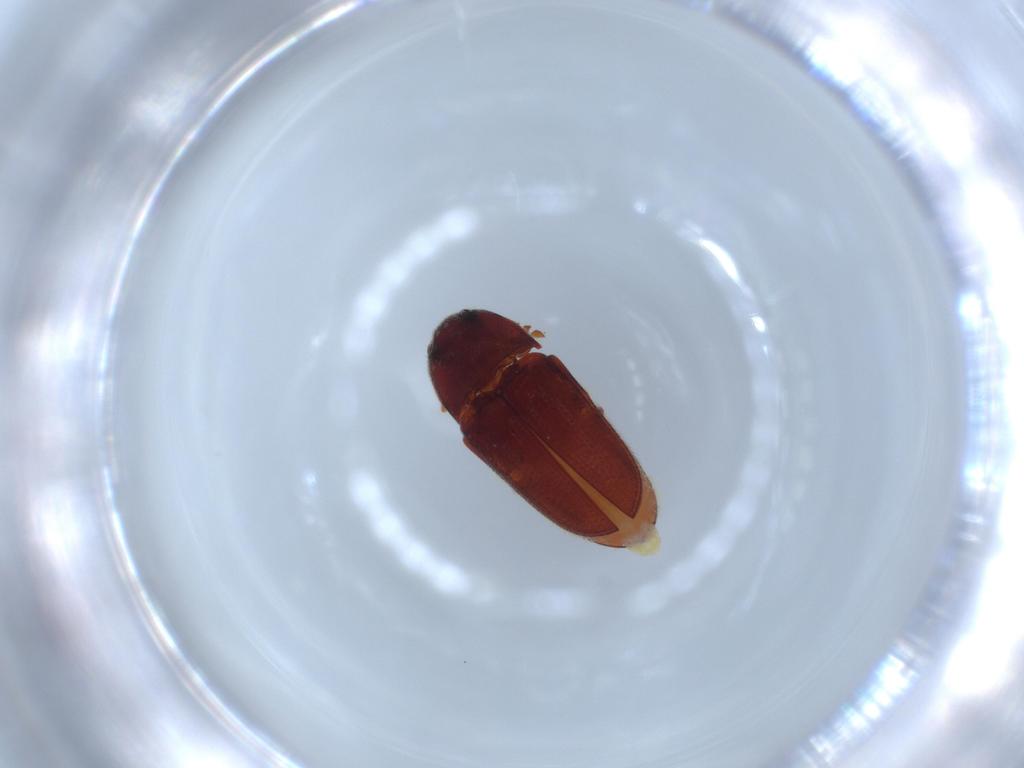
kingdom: Animalia
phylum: Arthropoda
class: Insecta
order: Coleoptera
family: Throscidae
